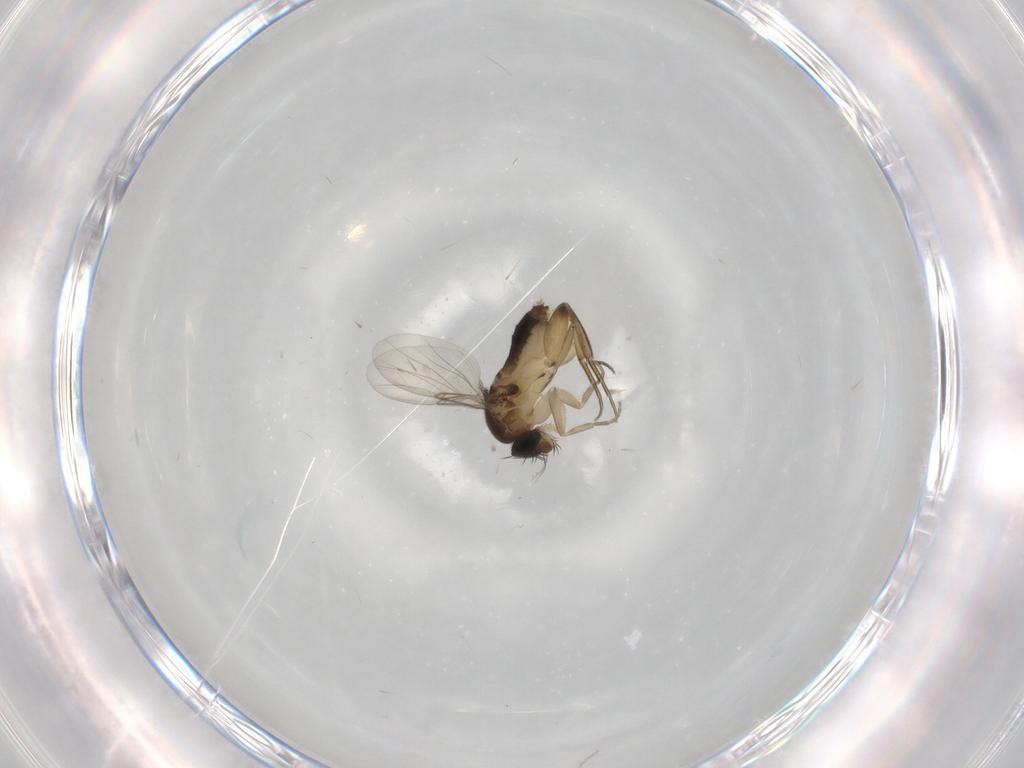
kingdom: Animalia
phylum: Arthropoda
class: Insecta
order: Diptera
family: Phoridae
